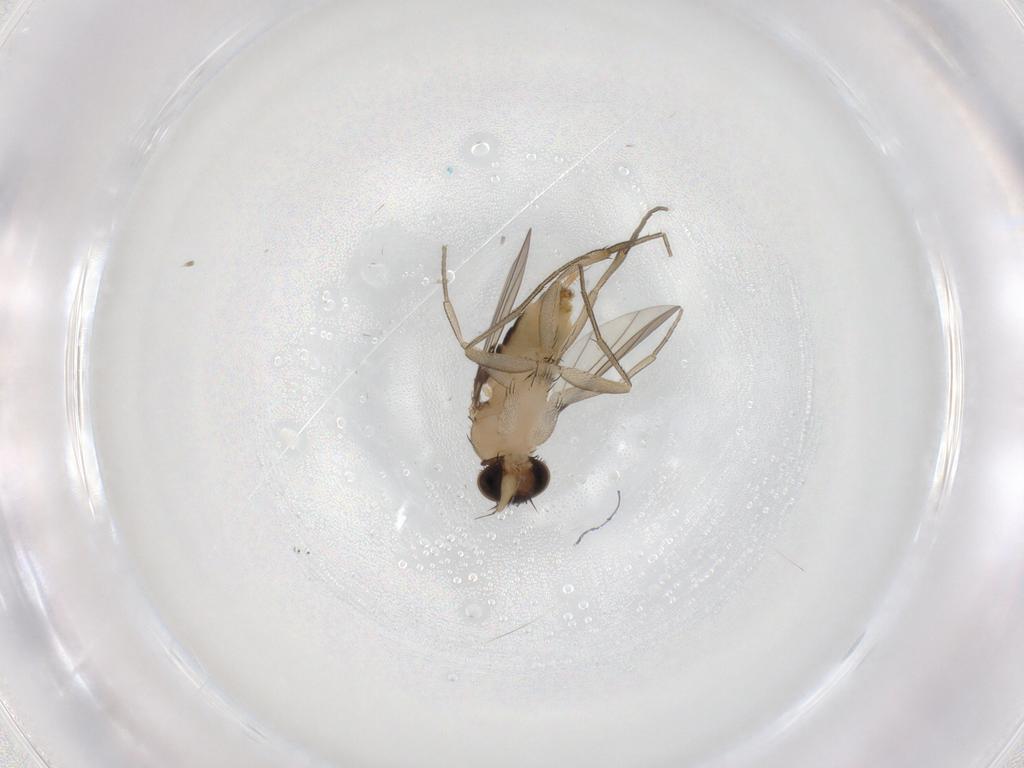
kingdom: Animalia
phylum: Arthropoda
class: Insecta
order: Diptera
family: Phoridae
